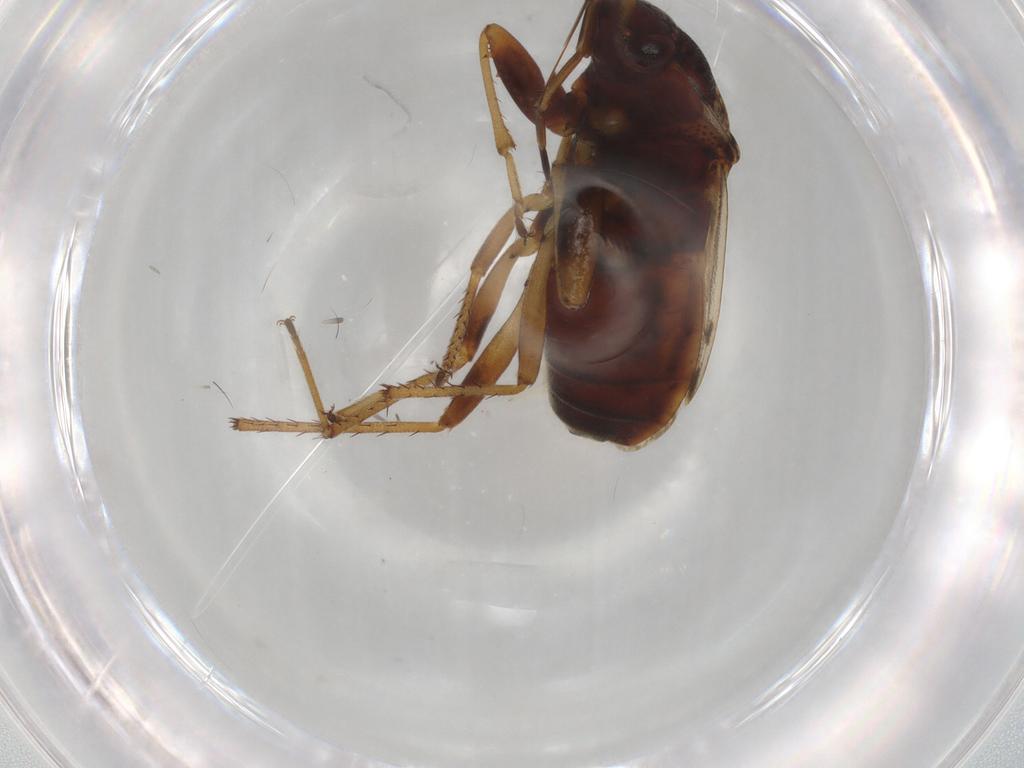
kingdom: Animalia
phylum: Arthropoda
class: Insecta
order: Hemiptera
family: Rhyparochromidae
